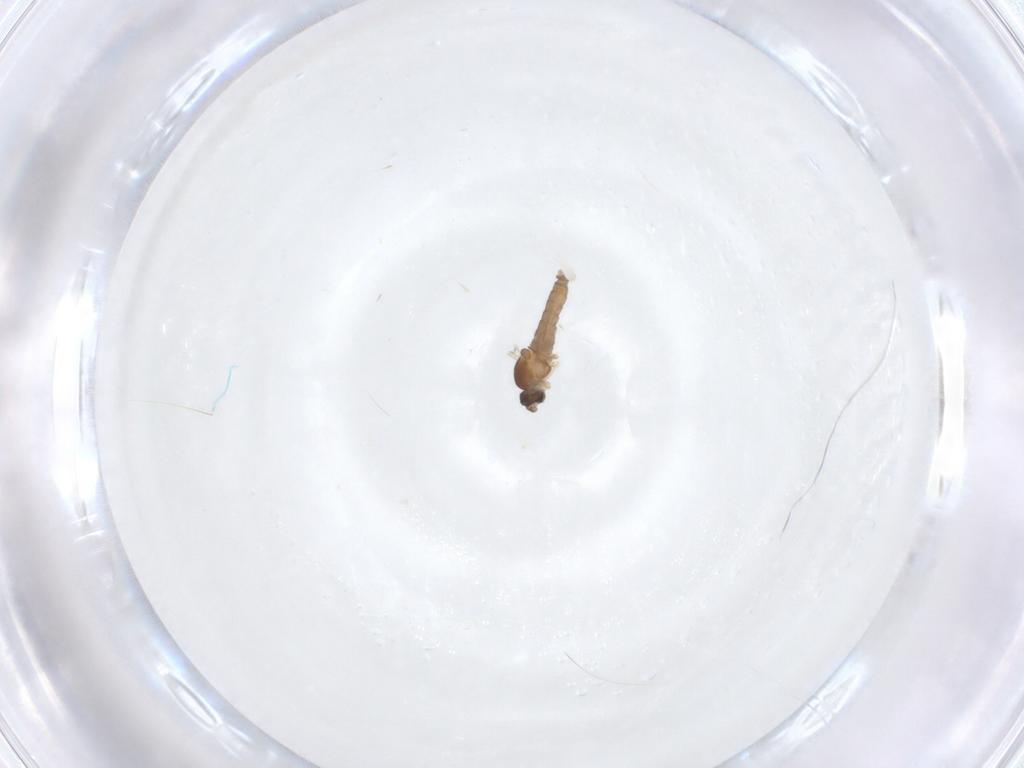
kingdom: Animalia
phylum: Arthropoda
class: Insecta
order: Diptera
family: Cecidomyiidae
